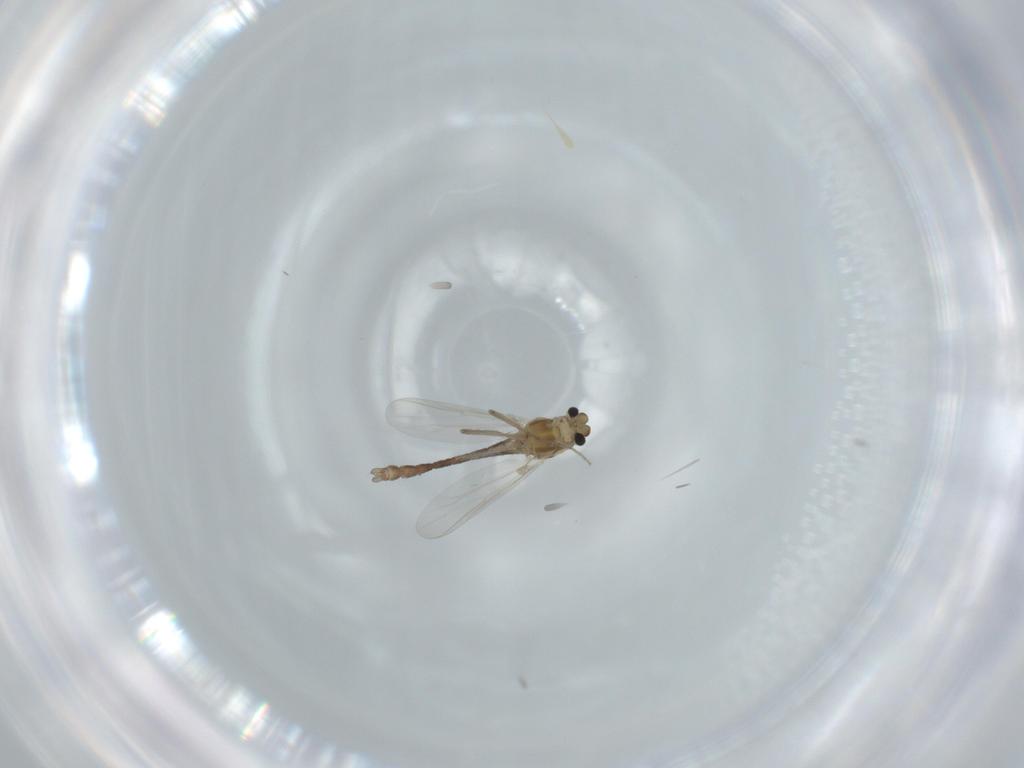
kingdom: Animalia
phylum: Arthropoda
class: Insecta
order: Diptera
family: Chironomidae
